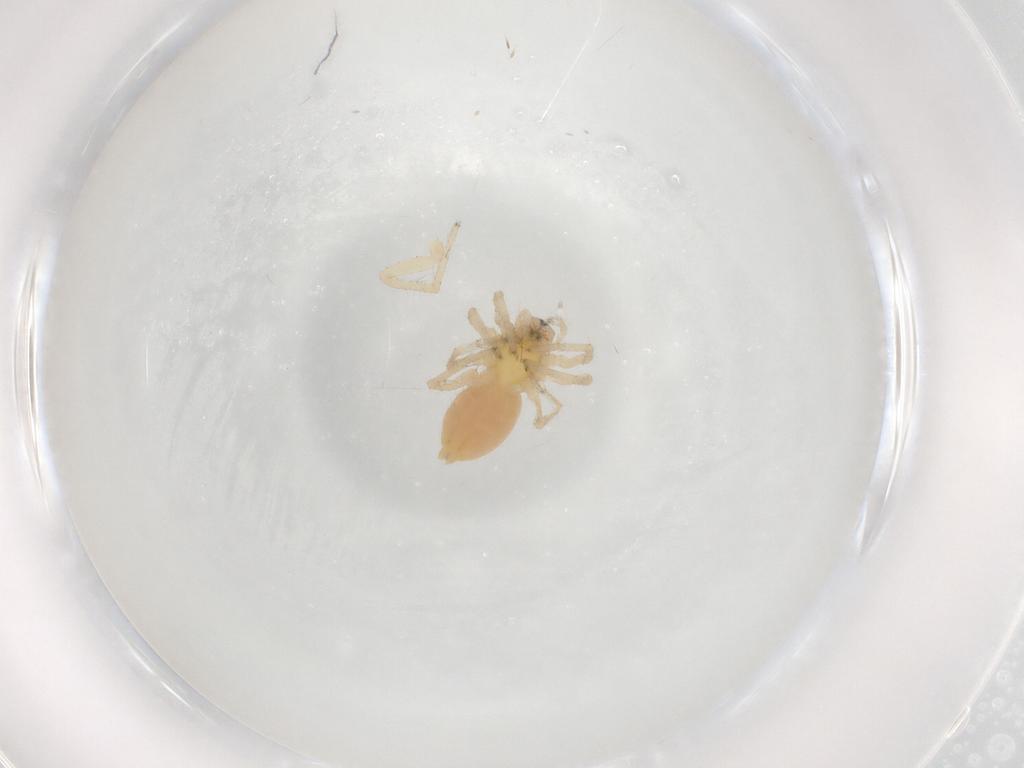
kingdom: Animalia
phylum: Arthropoda
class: Arachnida
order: Araneae
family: Anyphaenidae
